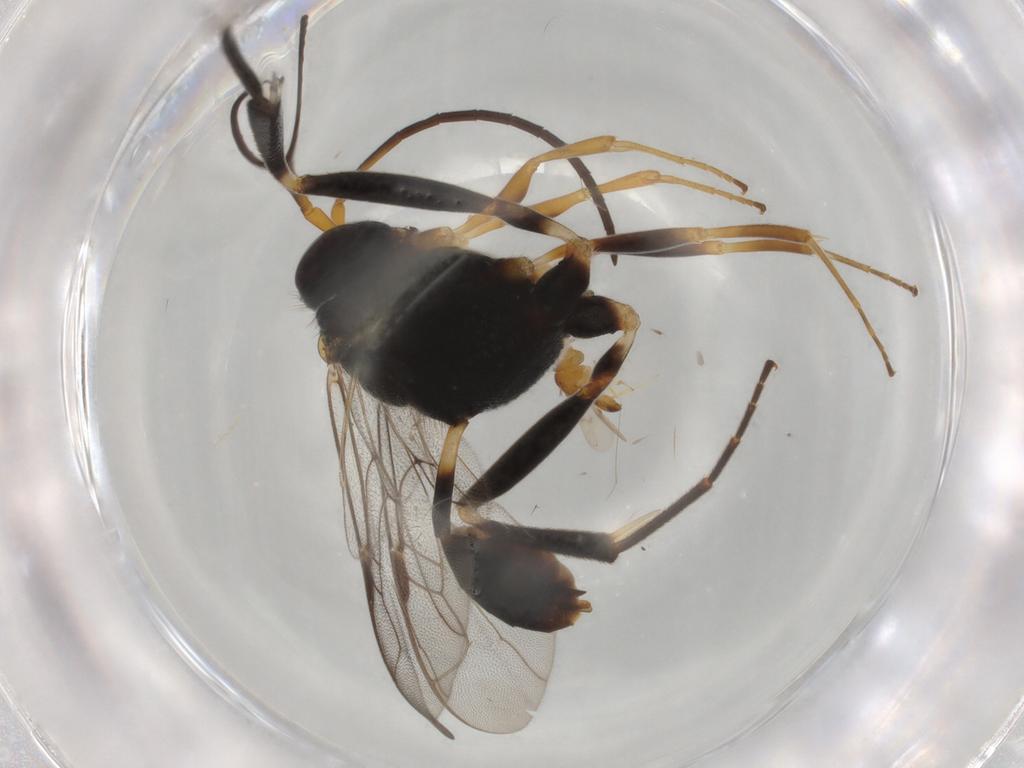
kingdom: Animalia
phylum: Arthropoda
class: Insecta
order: Hymenoptera
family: Evaniidae
